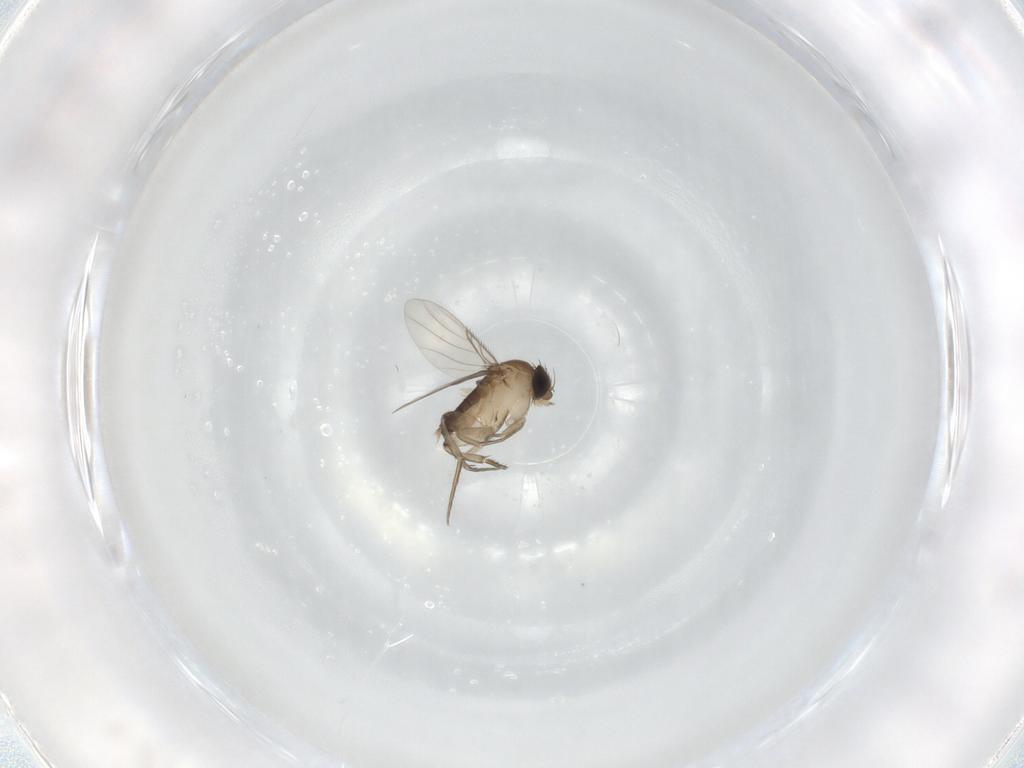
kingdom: Animalia
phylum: Arthropoda
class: Insecta
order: Diptera
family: Phoridae
